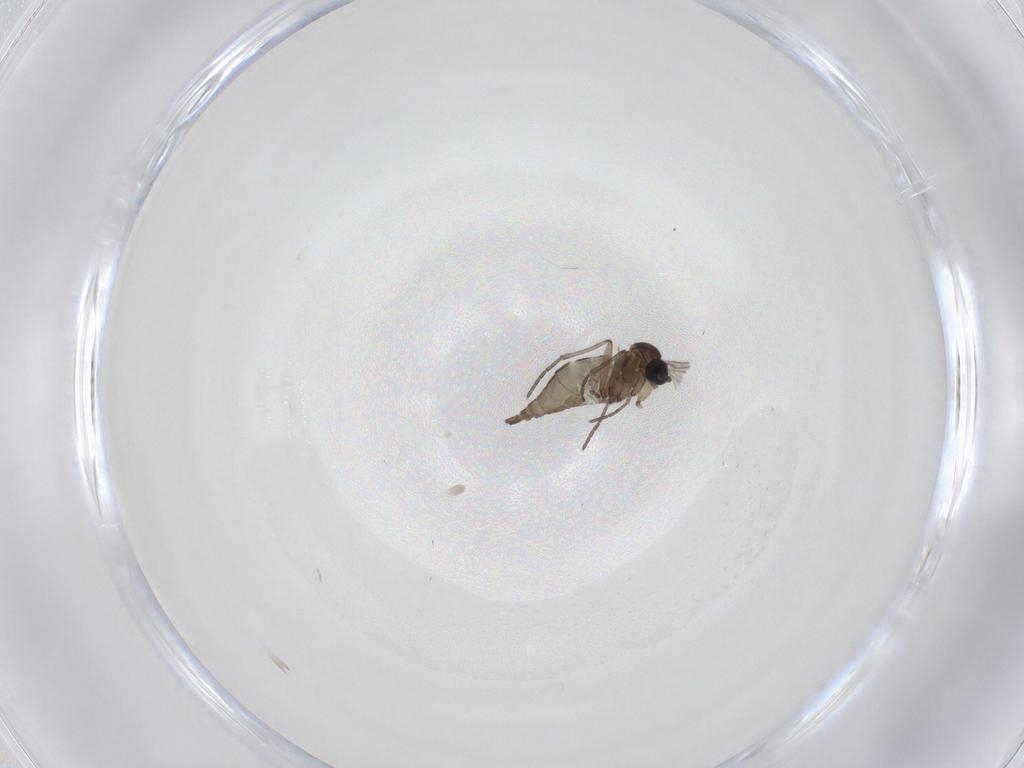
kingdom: Animalia
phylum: Arthropoda
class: Insecta
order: Diptera
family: Ceratopogonidae
